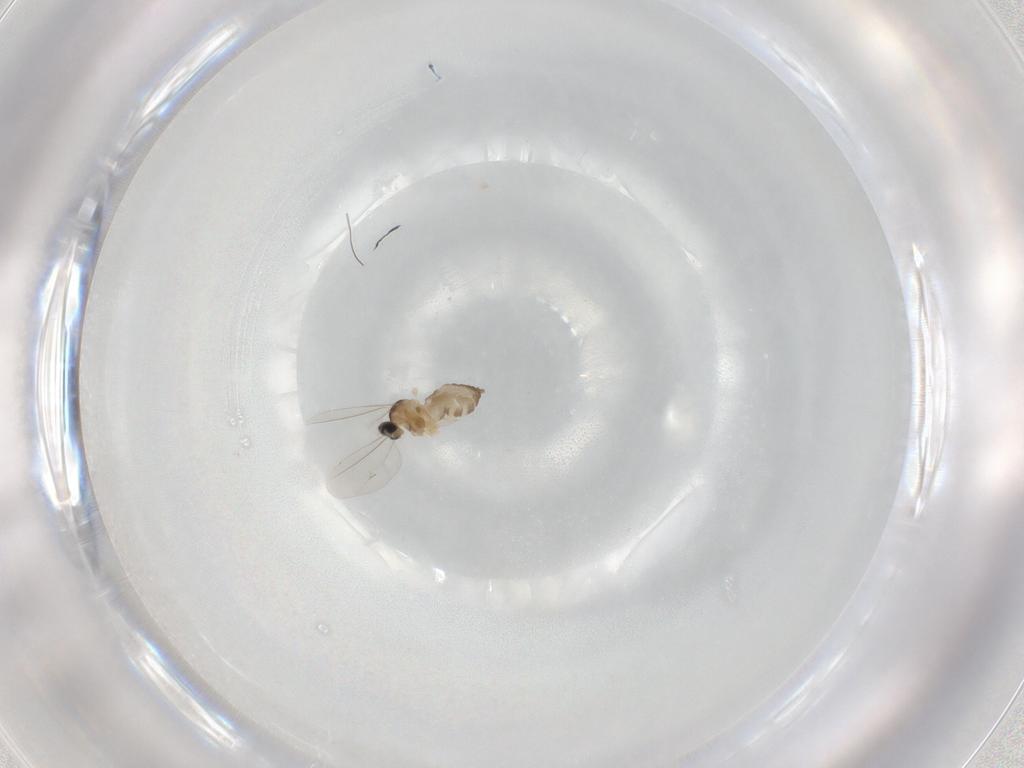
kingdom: Animalia
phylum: Arthropoda
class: Insecta
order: Diptera
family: Cecidomyiidae
